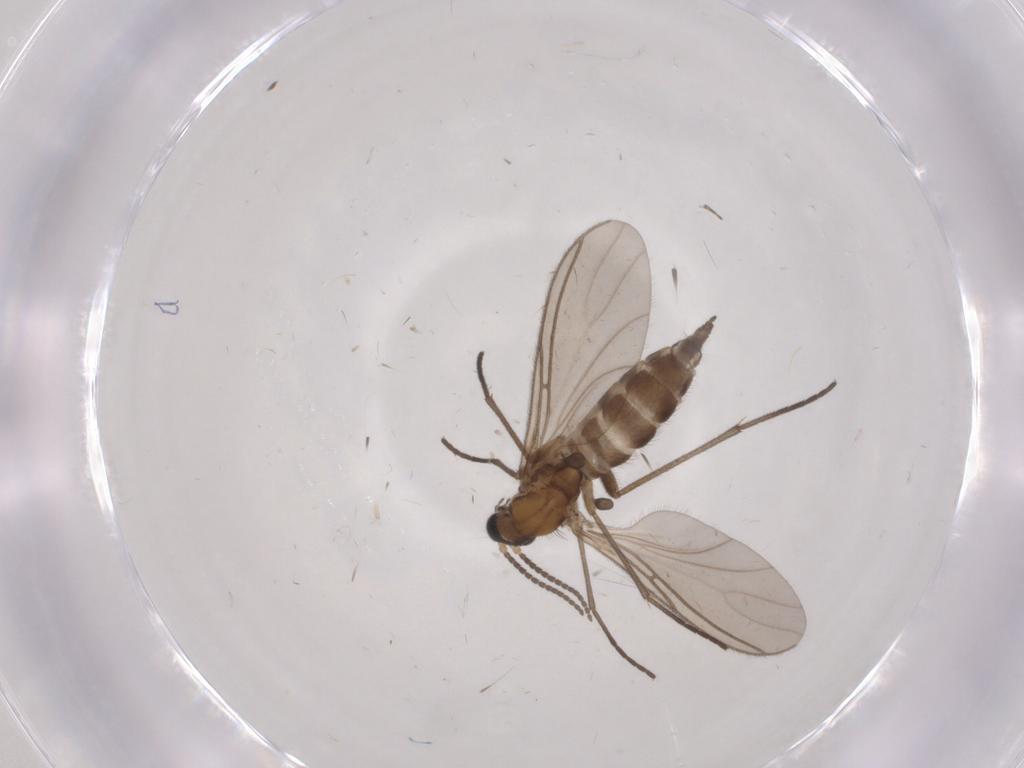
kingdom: Animalia
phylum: Arthropoda
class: Insecta
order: Diptera
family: Sciaridae
